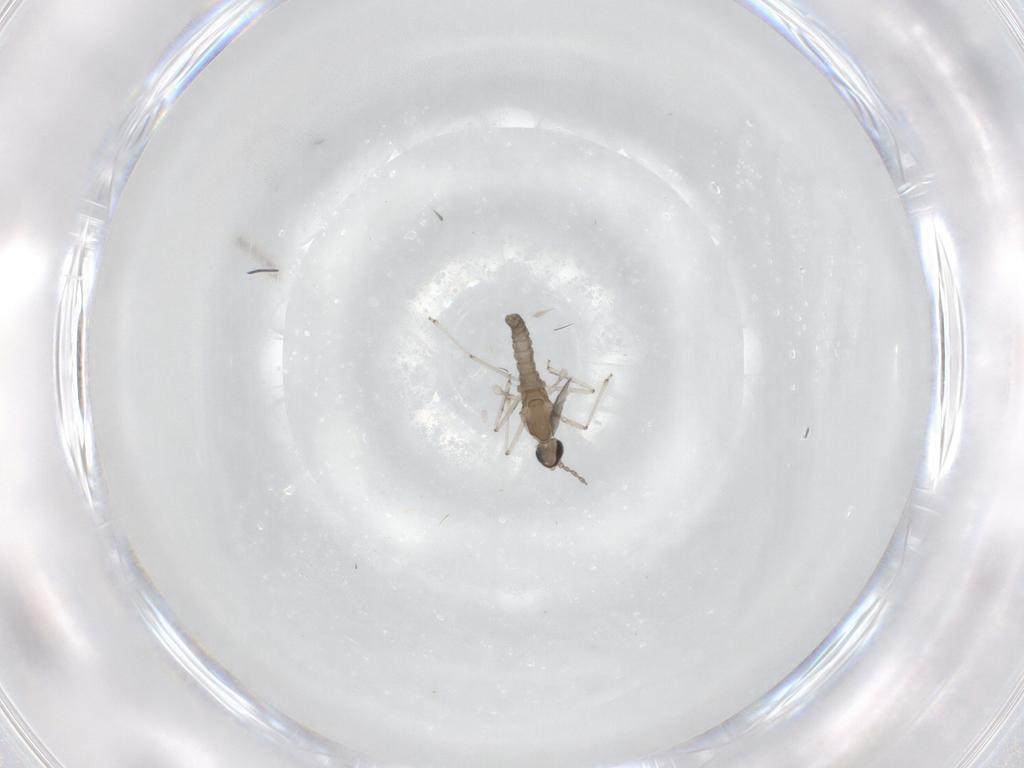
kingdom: Animalia
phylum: Arthropoda
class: Insecta
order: Diptera
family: Cecidomyiidae
